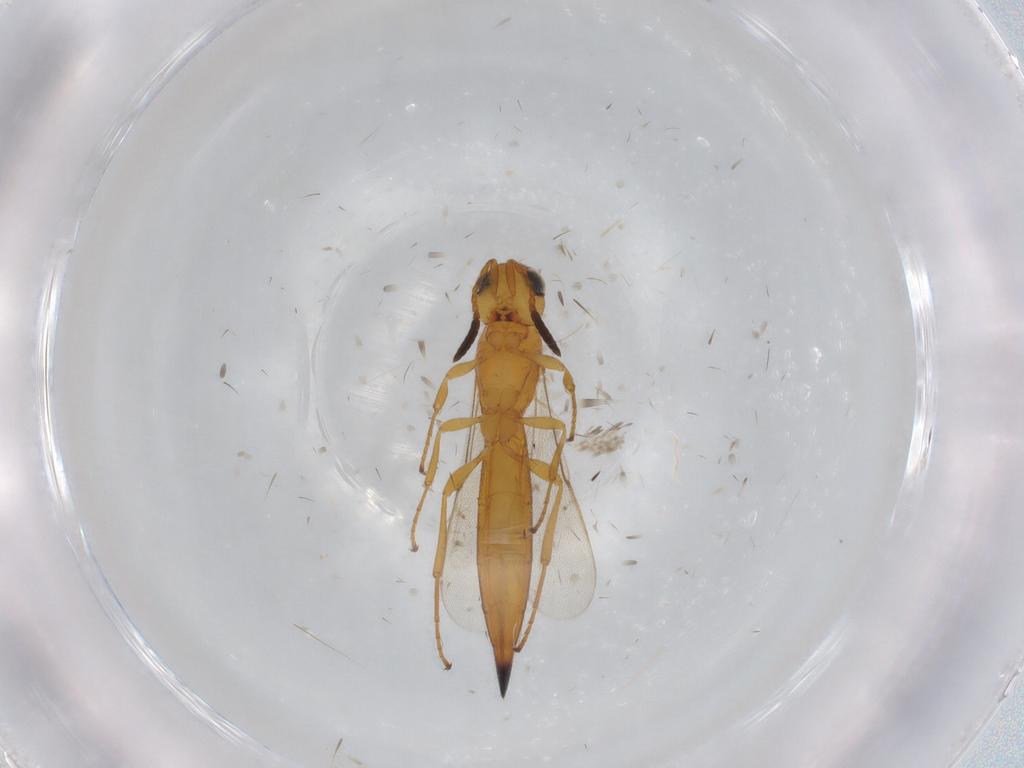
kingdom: Animalia
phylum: Arthropoda
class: Insecta
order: Hymenoptera
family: Scelionidae
